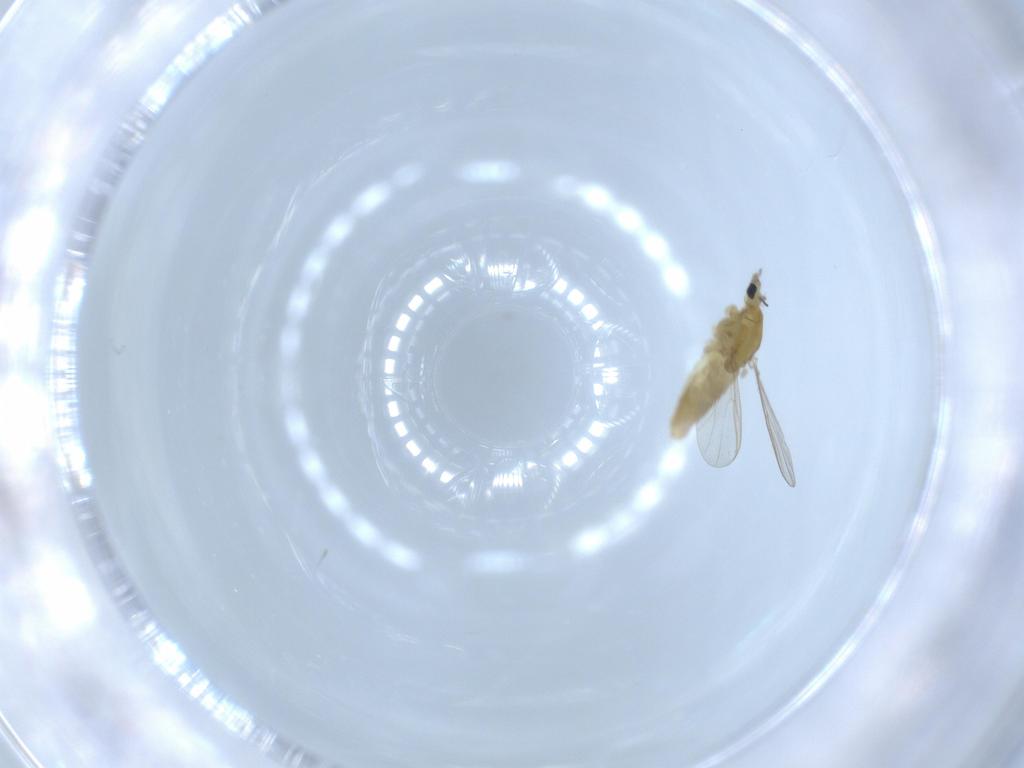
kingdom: Animalia
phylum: Arthropoda
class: Insecta
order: Diptera
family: Chironomidae
